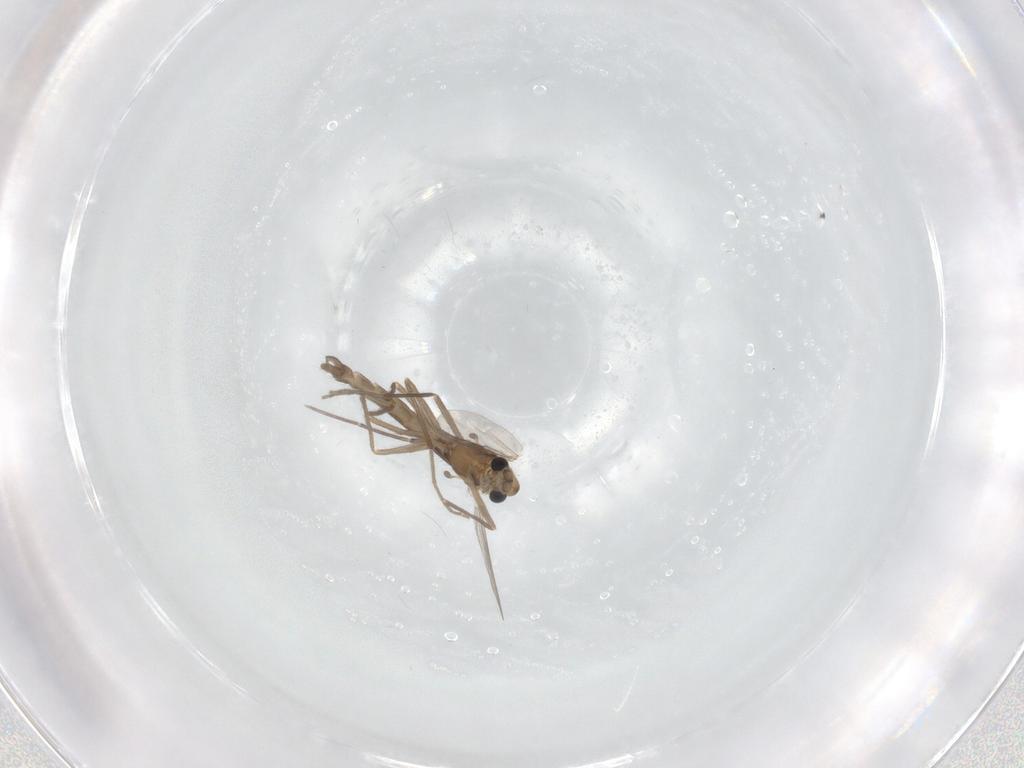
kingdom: Animalia
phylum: Arthropoda
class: Insecta
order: Diptera
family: Chironomidae
